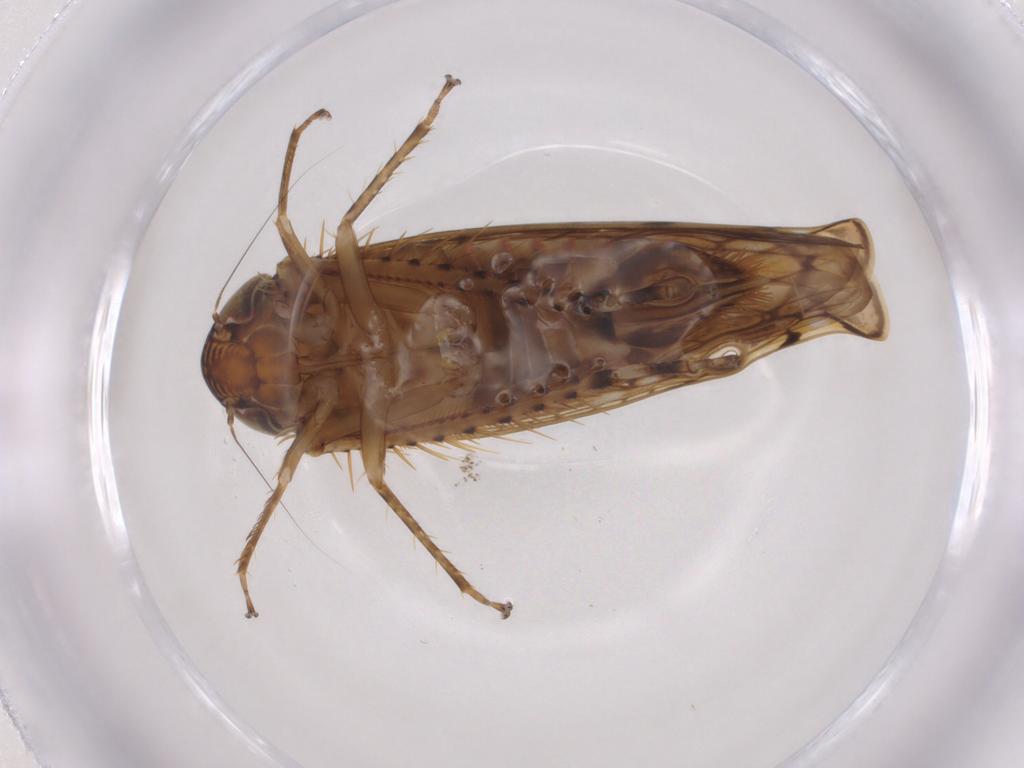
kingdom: Animalia
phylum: Arthropoda
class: Insecta
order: Hemiptera
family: Cicadellidae
